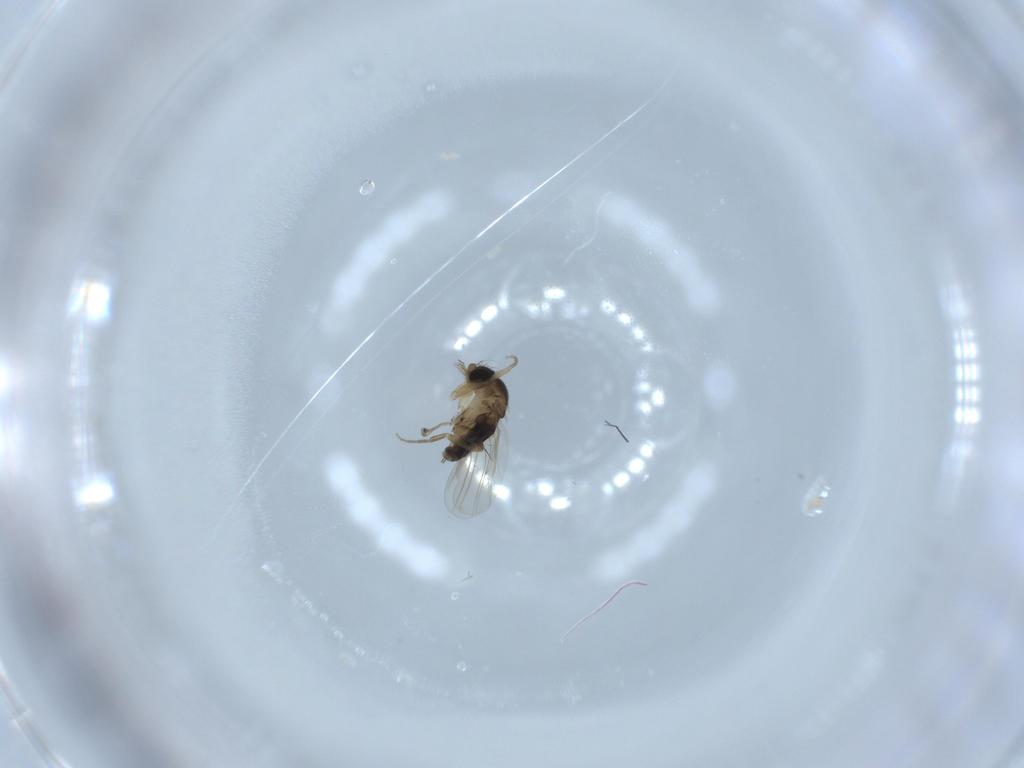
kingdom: Animalia
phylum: Arthropoda
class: Insecta
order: Diptera
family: Phoridae
